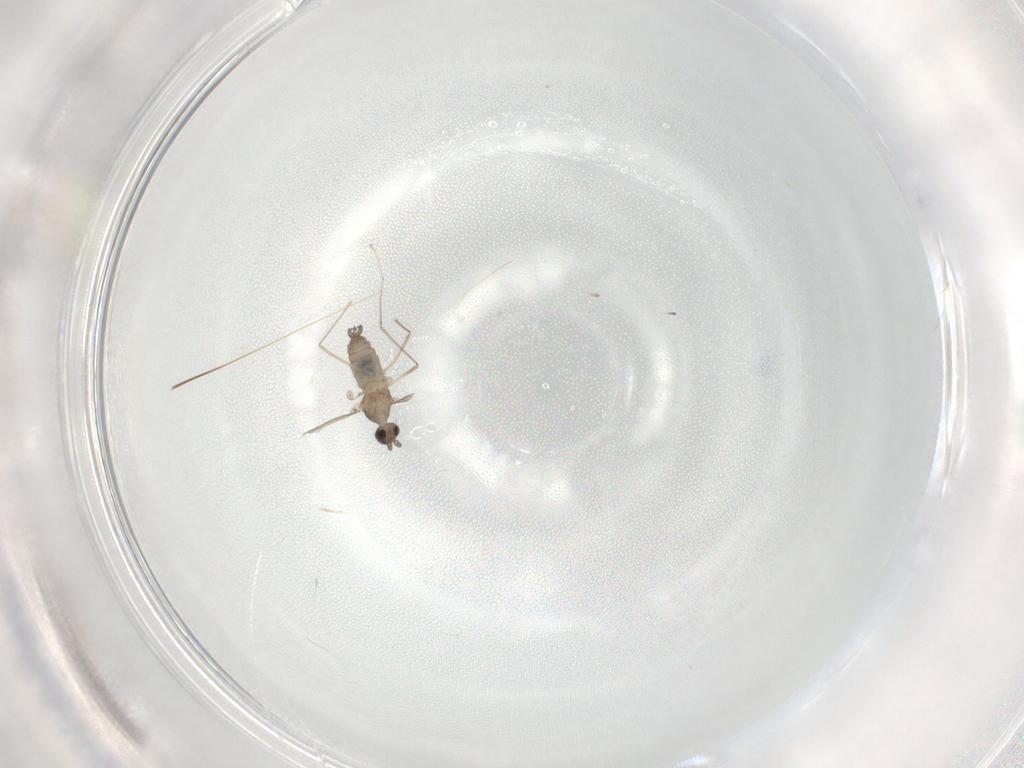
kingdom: Animalia
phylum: Arthropoda
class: Insecta
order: Diptera
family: Cecidomyiidae
